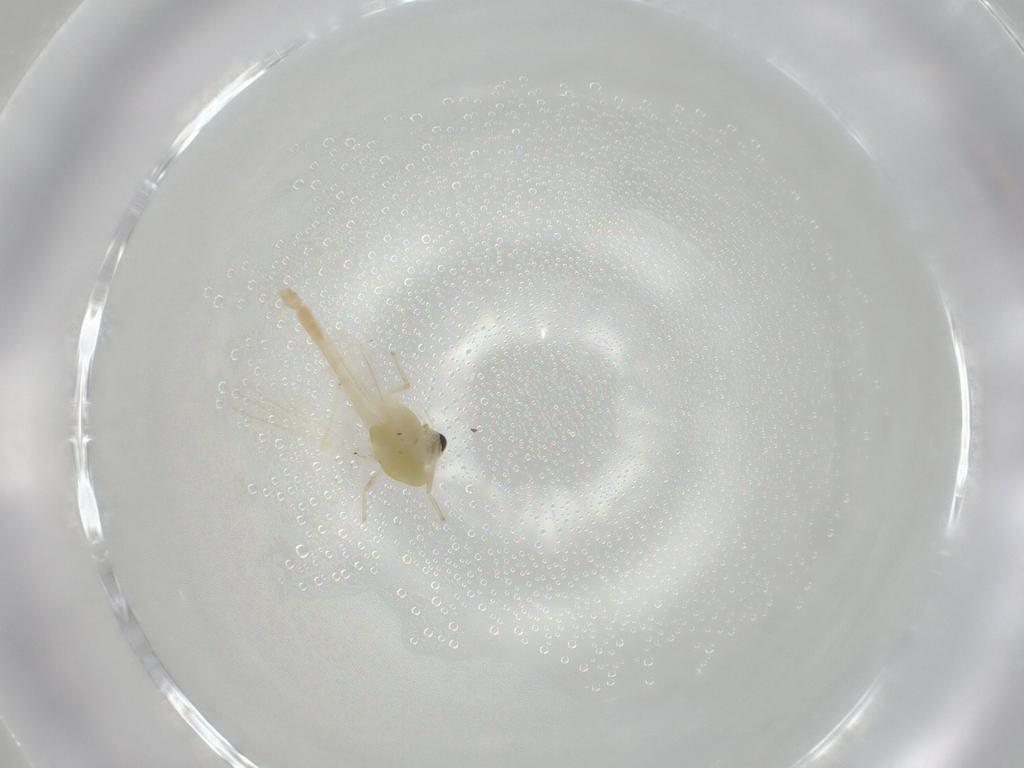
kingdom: Animalia
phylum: Arthropoda
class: Insecta
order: Diptera
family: Chironomidae
